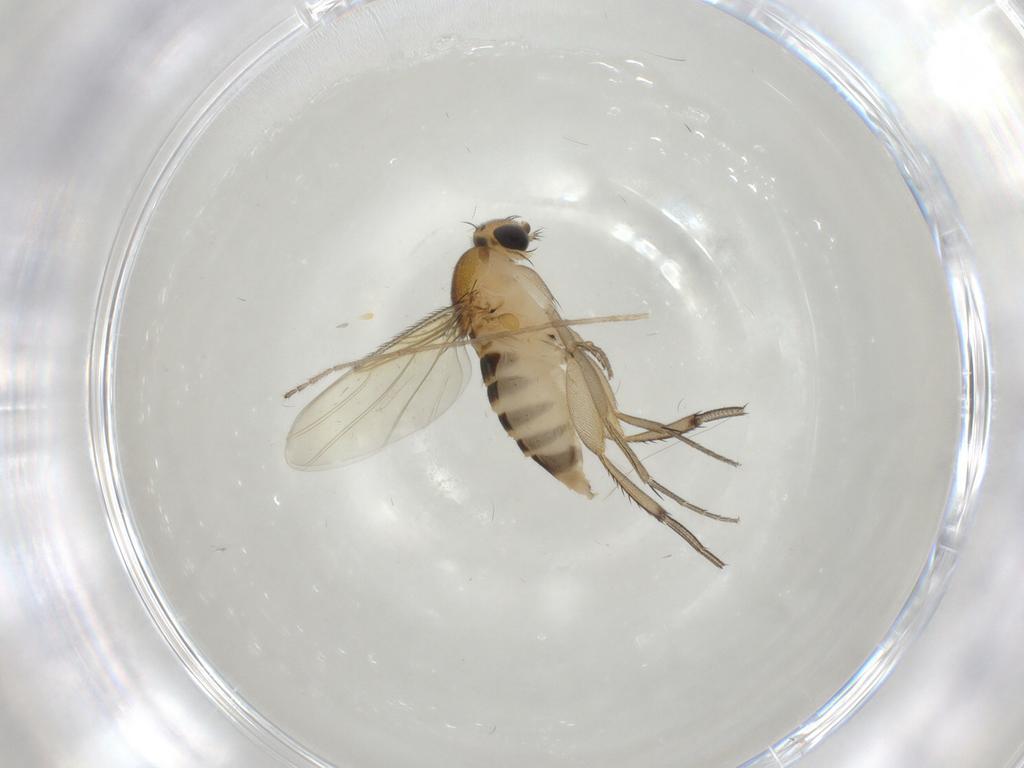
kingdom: Animalia
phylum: Arthropoda
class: Insecta
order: Diptera
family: Phoridae
